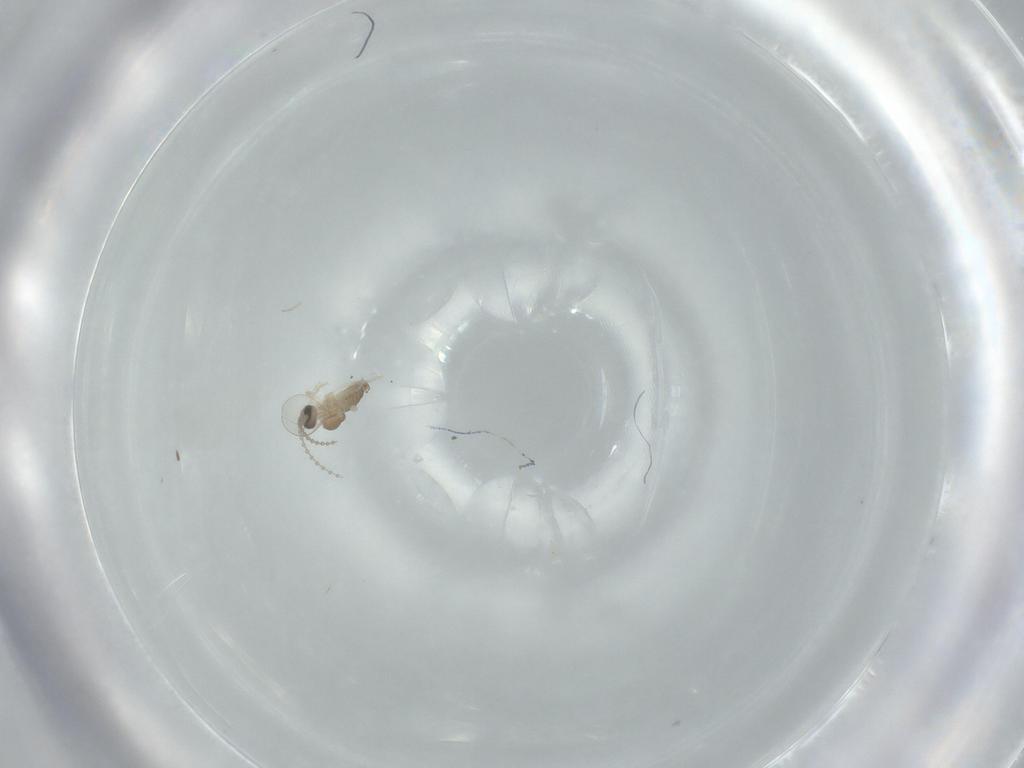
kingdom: Animalia
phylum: Arthropoda
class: Insecta
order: Diptera
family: Cecidomyiidae
